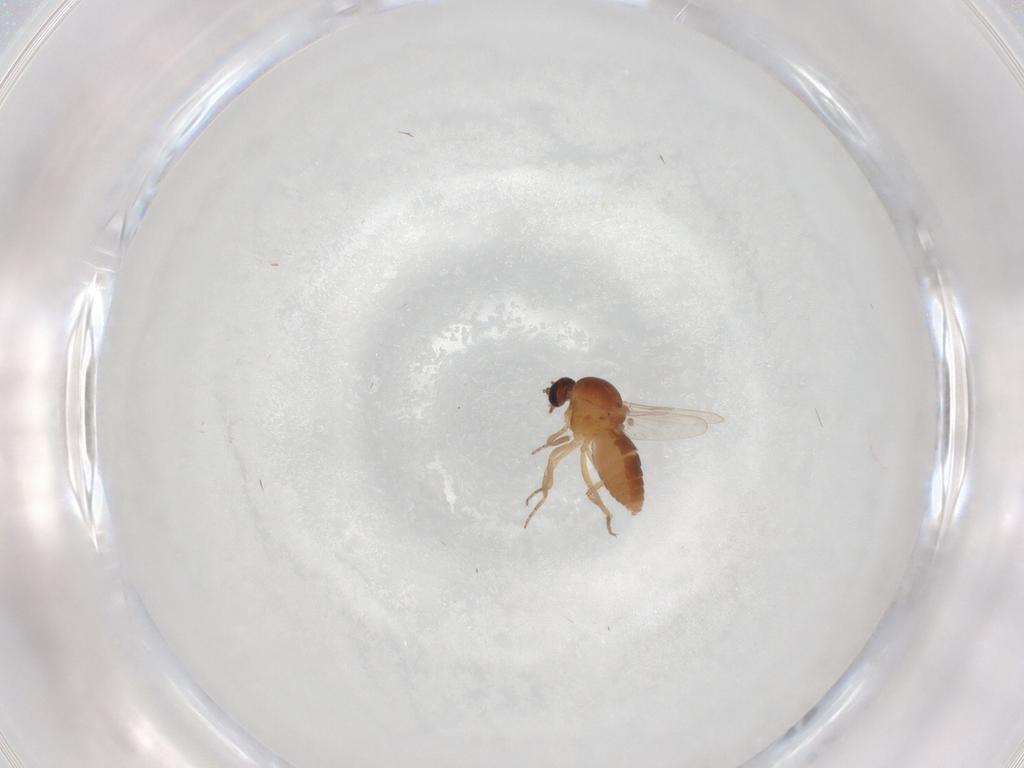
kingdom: Animalia
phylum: Arthropoda
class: Insecta
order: Diptera
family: Ceratopogonidae
